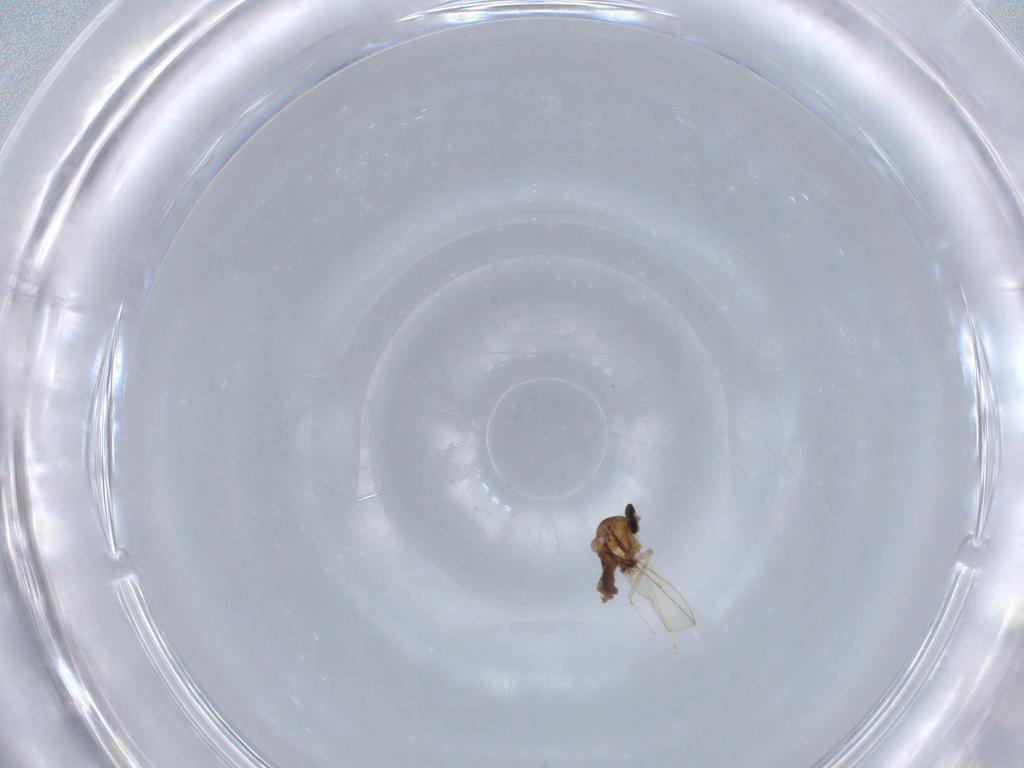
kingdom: Animalia
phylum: Arthropoda
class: Insecta
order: Diptera
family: Cecidomyiidae
